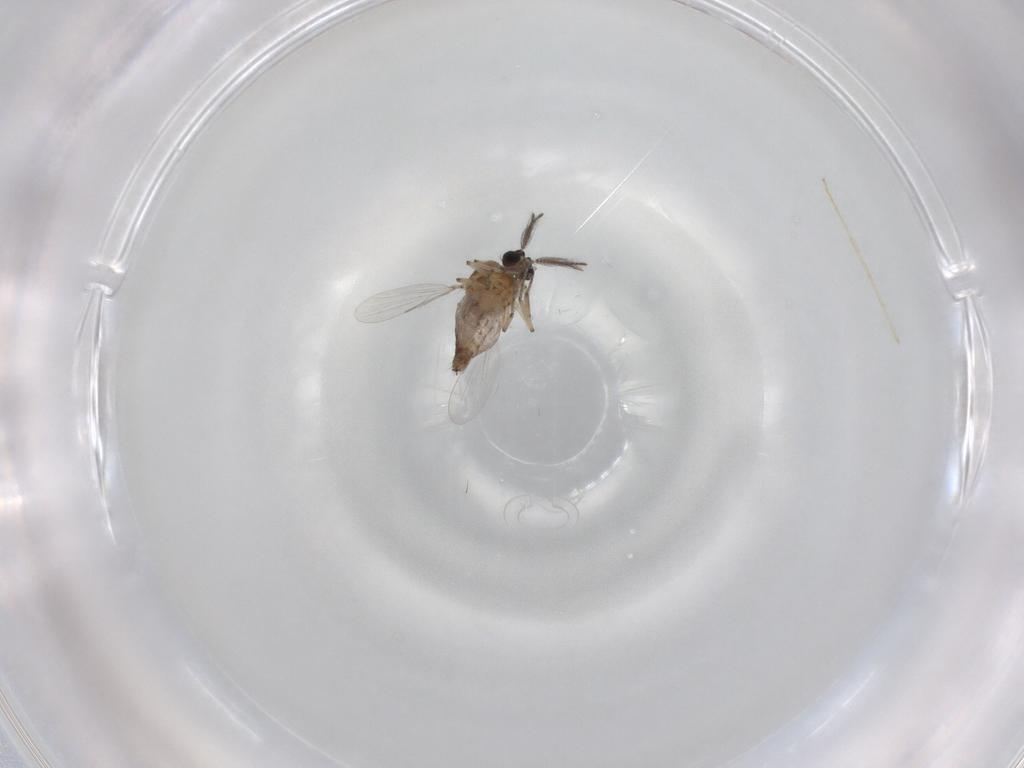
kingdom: Animalia
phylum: Arthropoda
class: Insecta
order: Diptera
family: Ceratopogonidae
